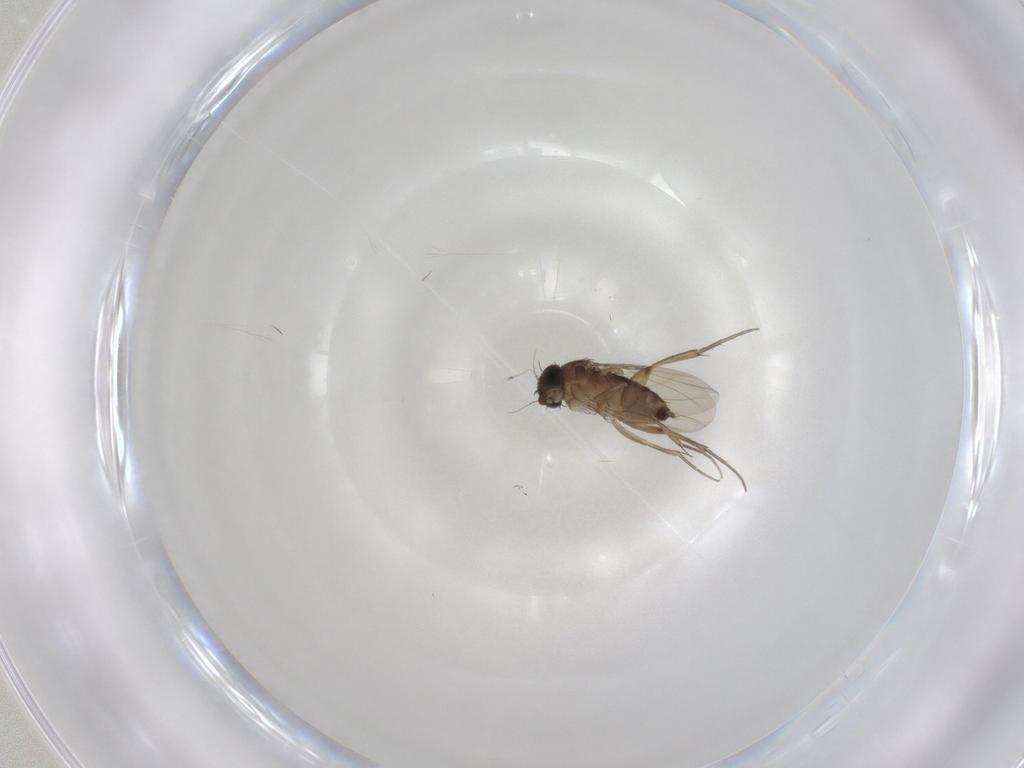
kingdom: Animalia
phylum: Arthropoda
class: Insecta
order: Diptera
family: Phoridae
